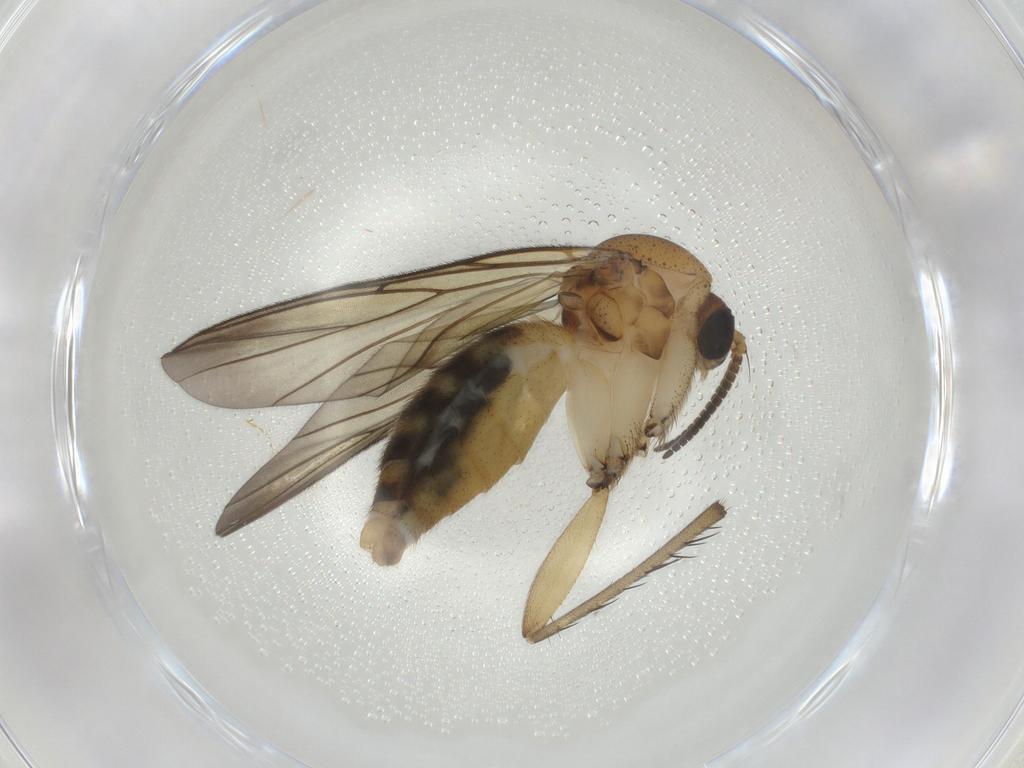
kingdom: Animalia
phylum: Arthropoda
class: Insecta
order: Diptera
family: Mycetophilidae
